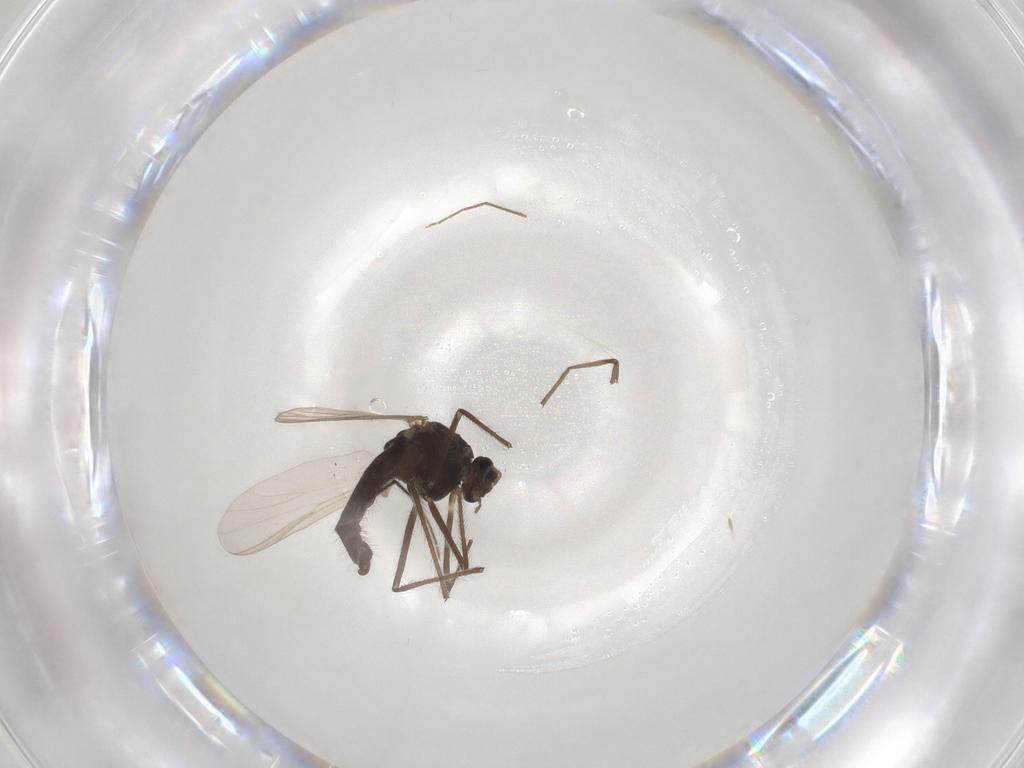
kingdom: Animalia
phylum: Arthropoda
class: Insecta
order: Diptera
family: Chironomidae
